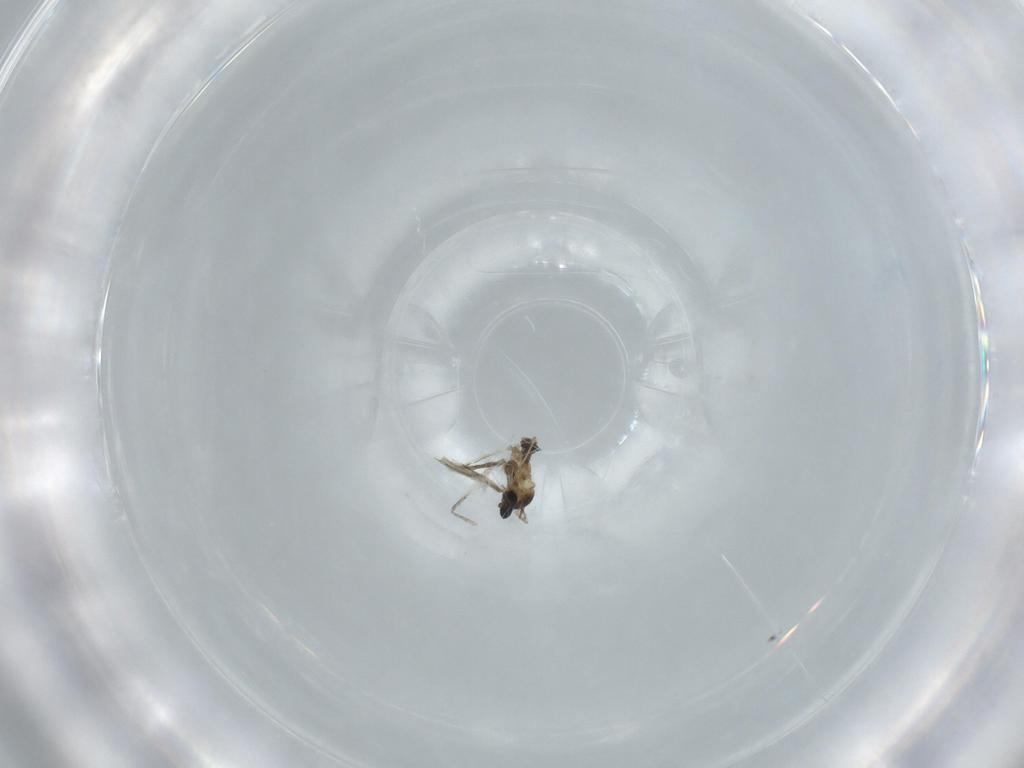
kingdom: Animalia
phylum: Arthropoda
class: Insecta
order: Diptera
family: Cecidomyiidae
